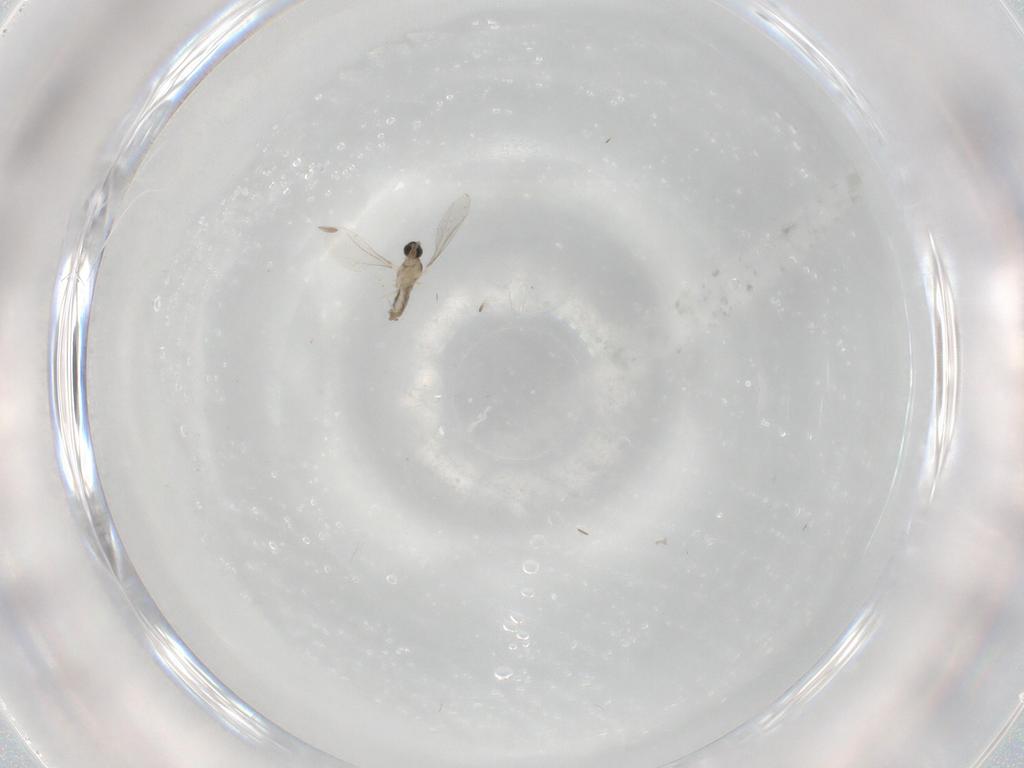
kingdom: Animalia
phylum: Arthropoda
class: Insecta
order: Diptera
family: Cecidomyiidae
